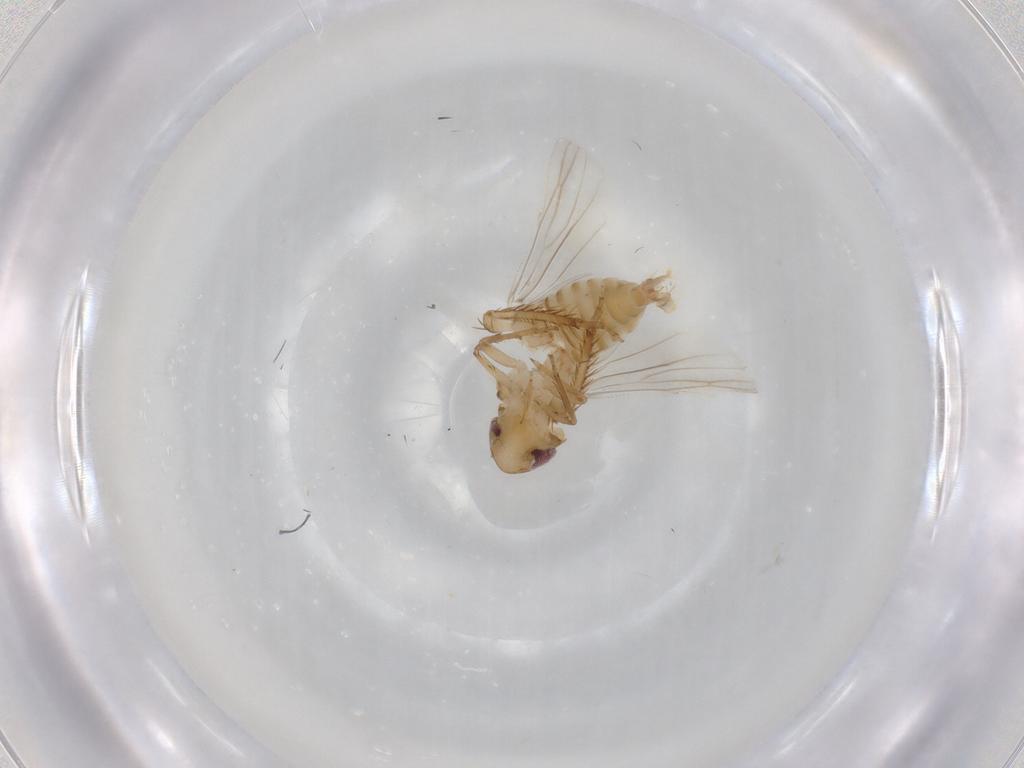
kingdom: Animalia
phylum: Arthropoda
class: Insecta
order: Hemiptera
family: Cicadellidae
